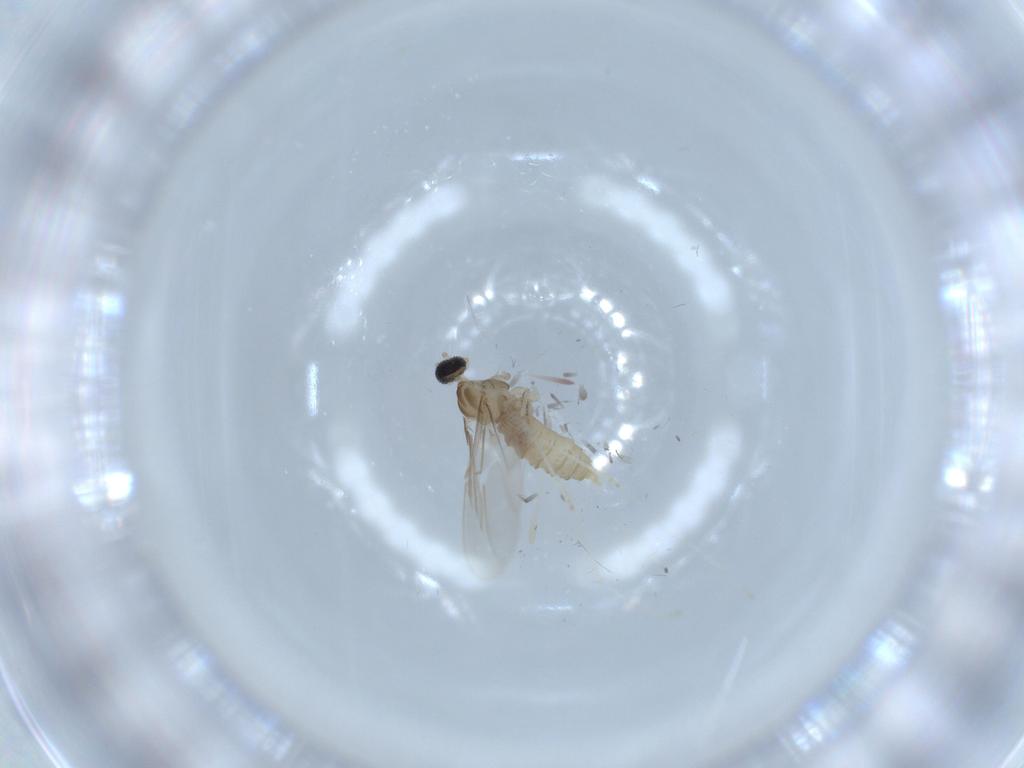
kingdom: Animalia
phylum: Arthropoda
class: Insecta
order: Diptera
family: Cecidomyiidae
